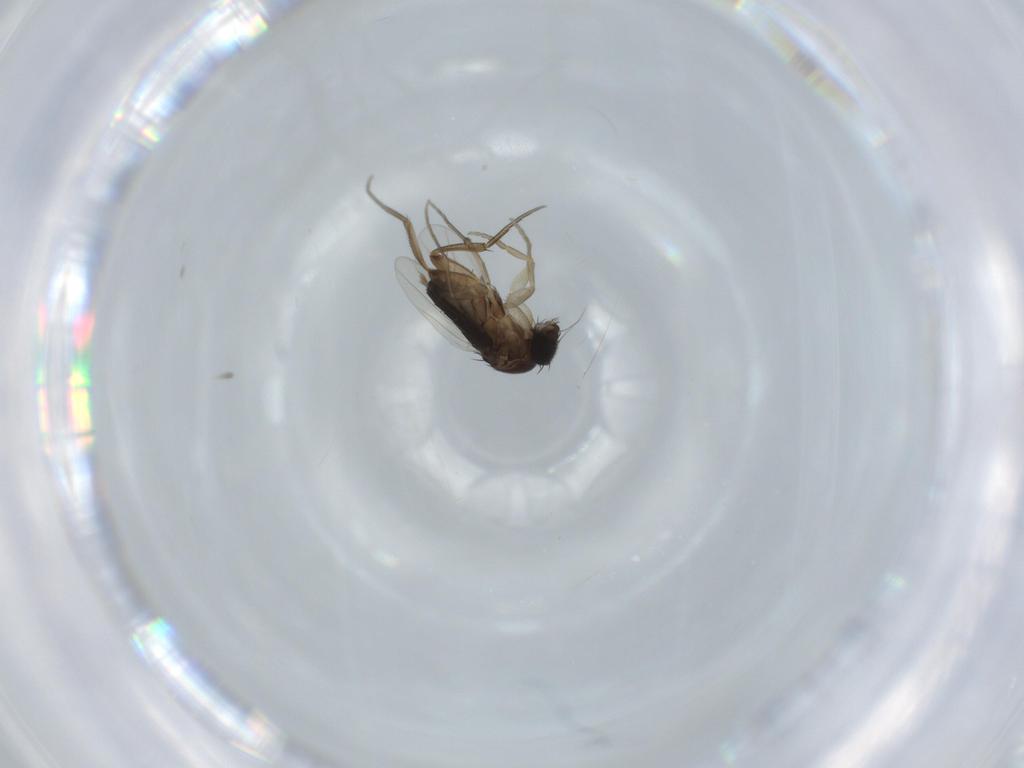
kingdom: Animalia
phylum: Arthropoda
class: Insecta
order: Diptera
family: Phoridae
